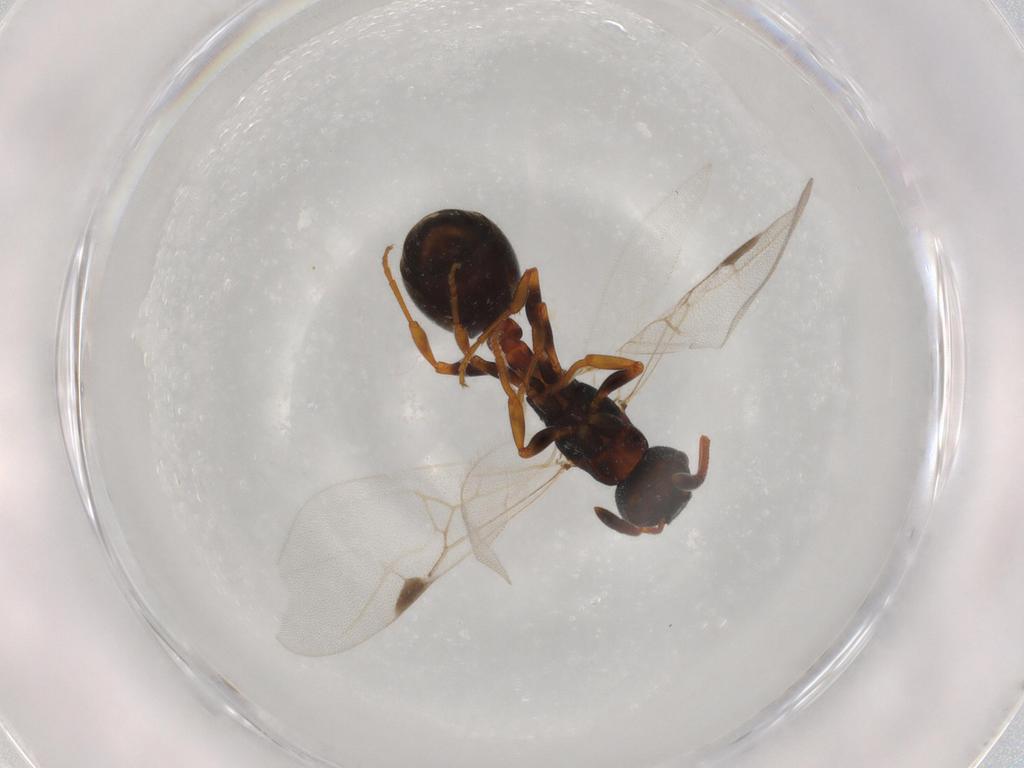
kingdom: Animalia
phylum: Arthropoda
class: Insecta
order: Hymenoptera
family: Formicidae
